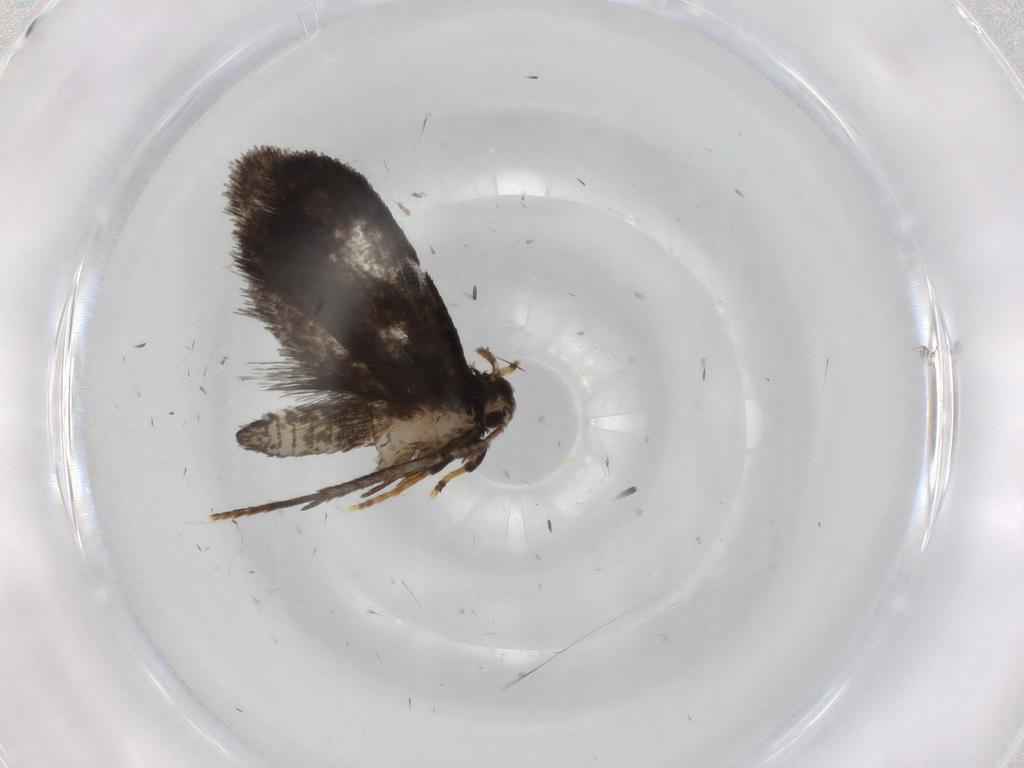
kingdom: Animalia
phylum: Arthropoda
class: Insecta
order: Lepidoptera
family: Psychidae
